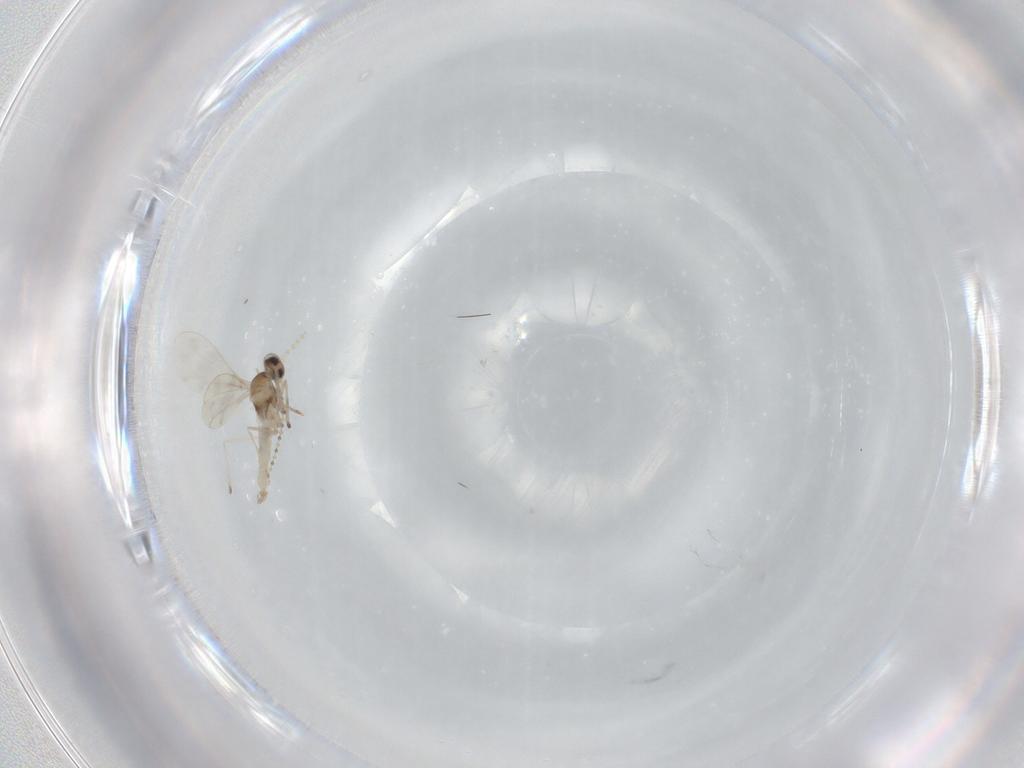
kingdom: Animalia
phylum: Arthropoda
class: Insecta
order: Diptera
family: Cecidomyiidae
